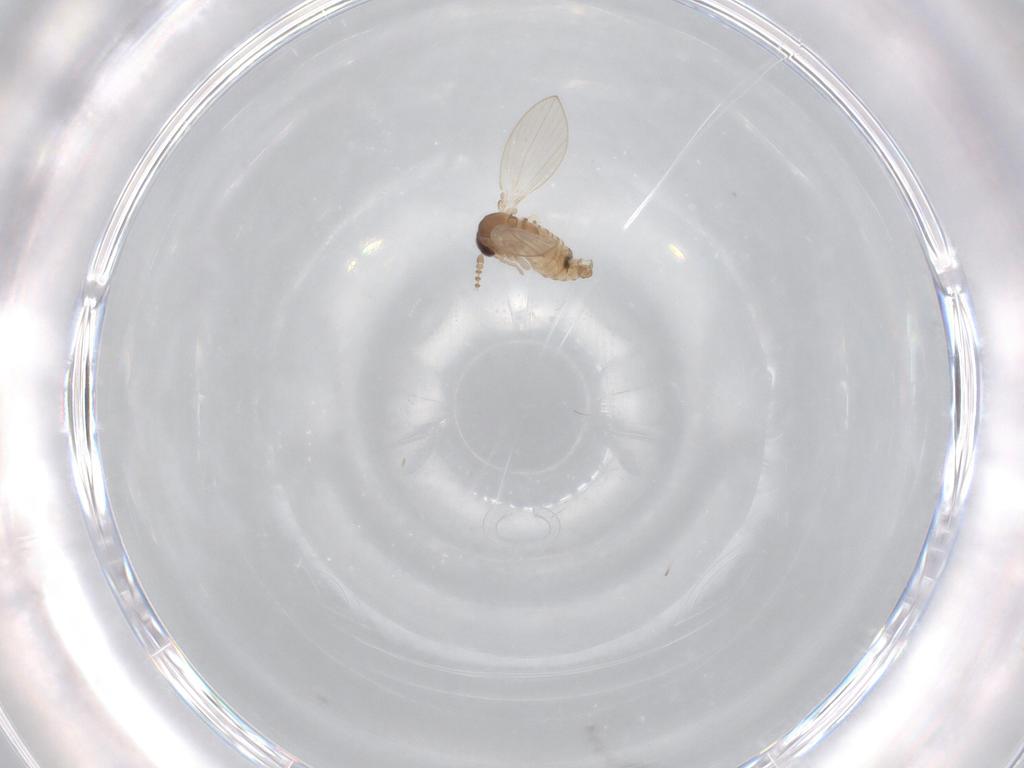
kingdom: Animalia
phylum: Arthropoda
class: Insecta
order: Diptera
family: Psychodidae
